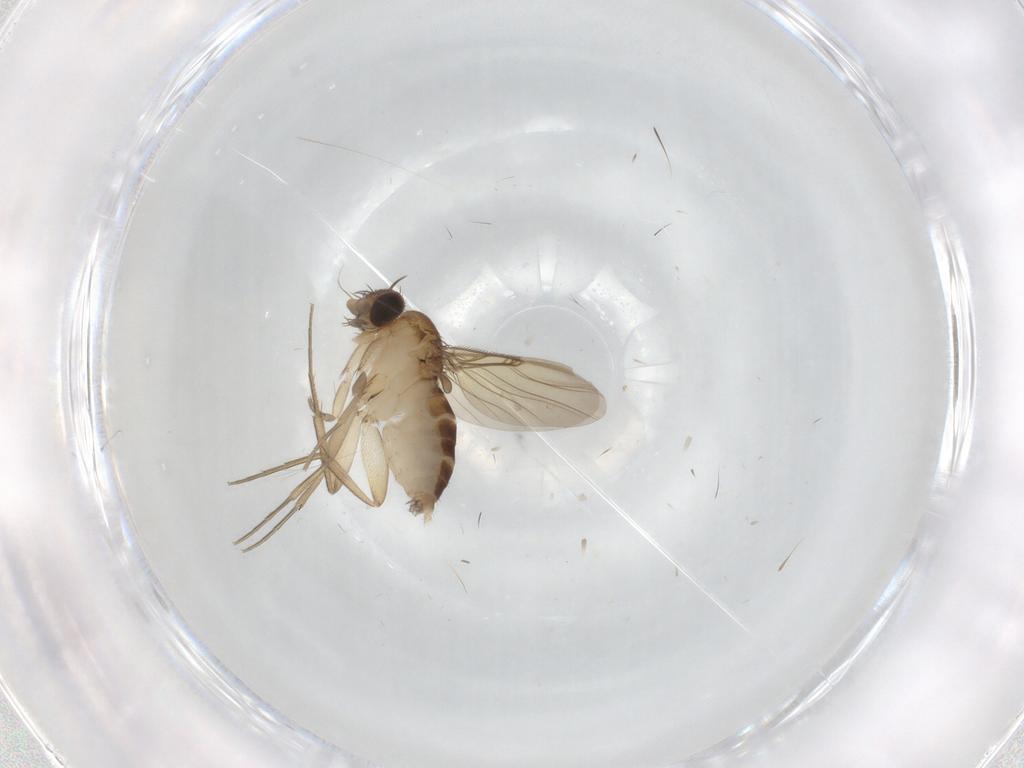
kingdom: Animalia
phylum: Arthropoda
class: Insecta
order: Diptera
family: Phoridae
